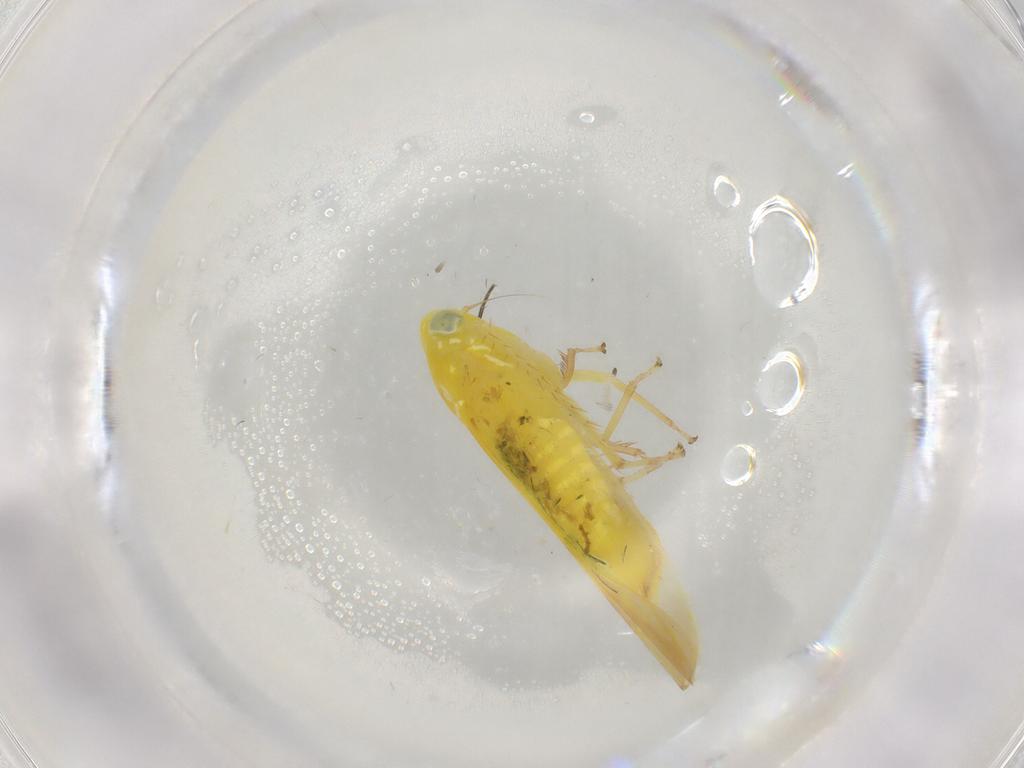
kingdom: Animalia
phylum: Arthropoda
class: Insecta
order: Hemiptera
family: Cicadellidae
